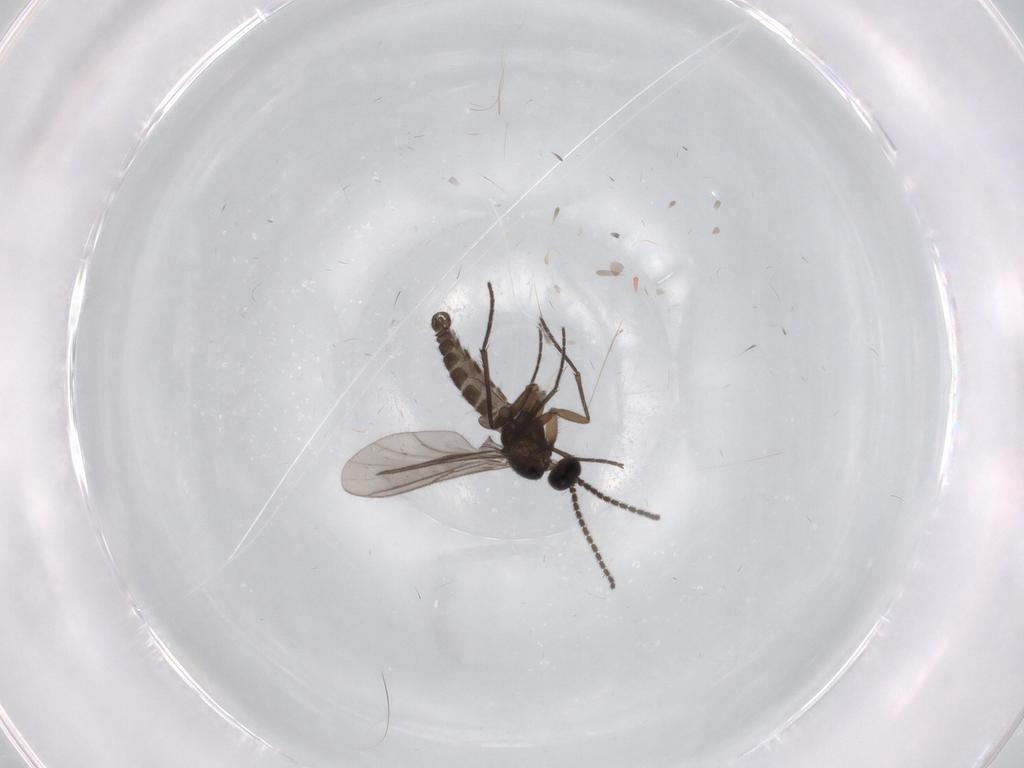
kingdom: Animalia
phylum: Arthropoda
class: Insecta
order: Diptera
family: Sciaridae
